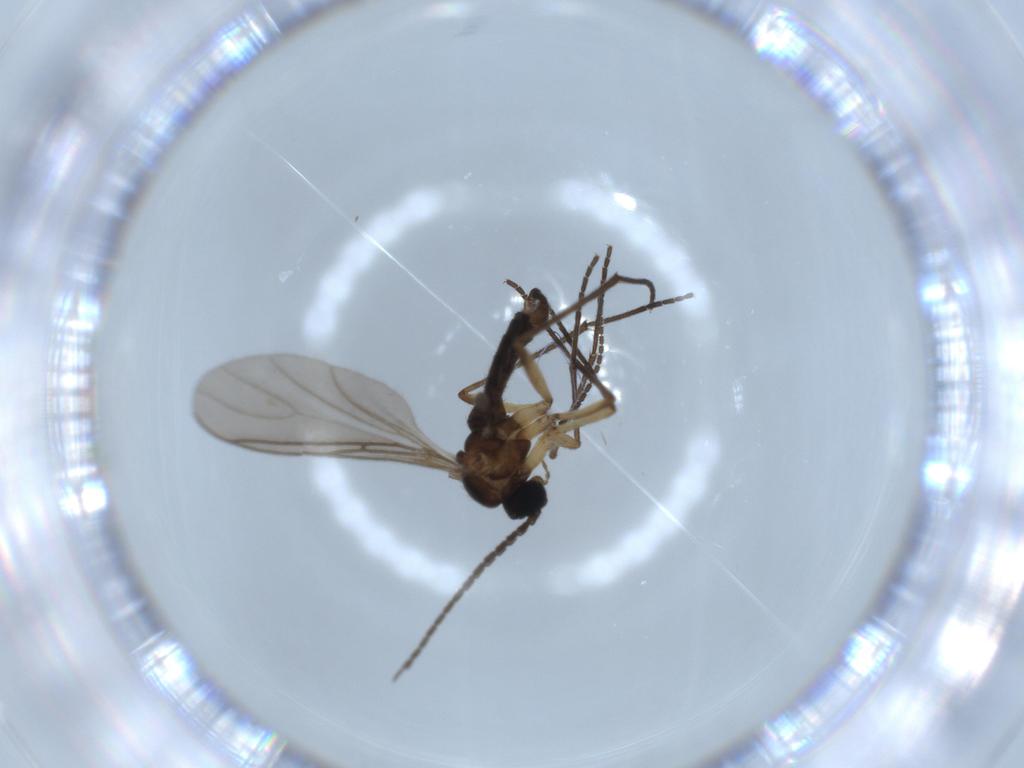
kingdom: Animalia
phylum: Arthropoda
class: Insecta
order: Diptera
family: Sciaridae
